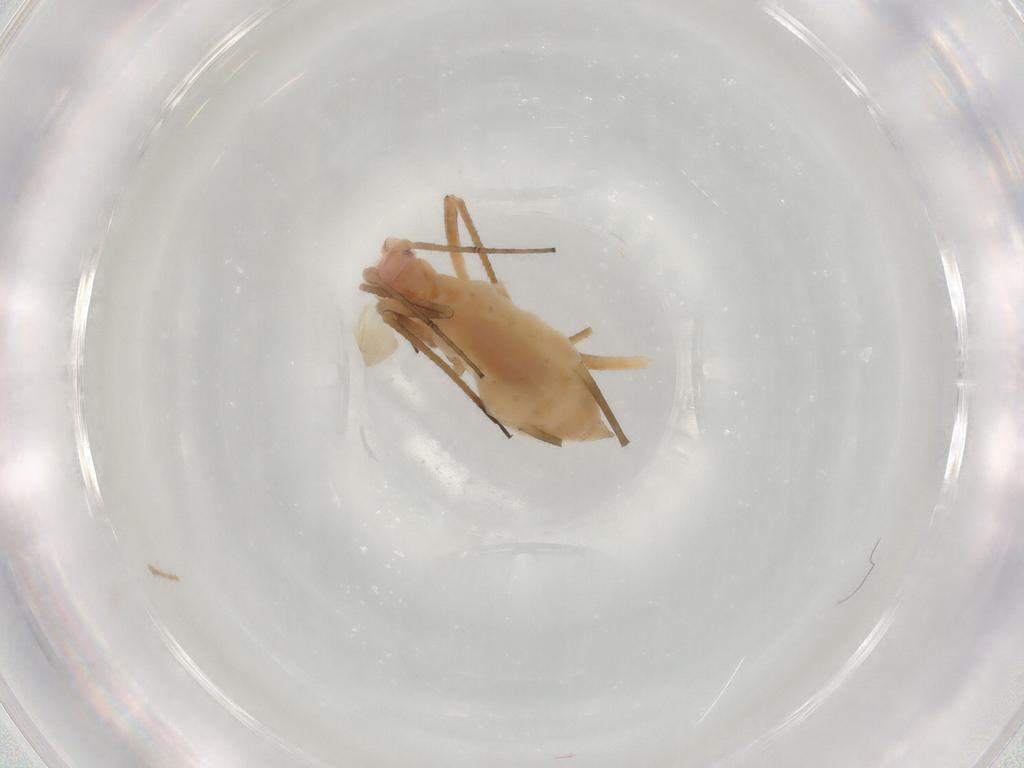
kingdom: Animalia
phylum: Arthropoda
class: Insecta
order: Hemiptera
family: Aphididae
